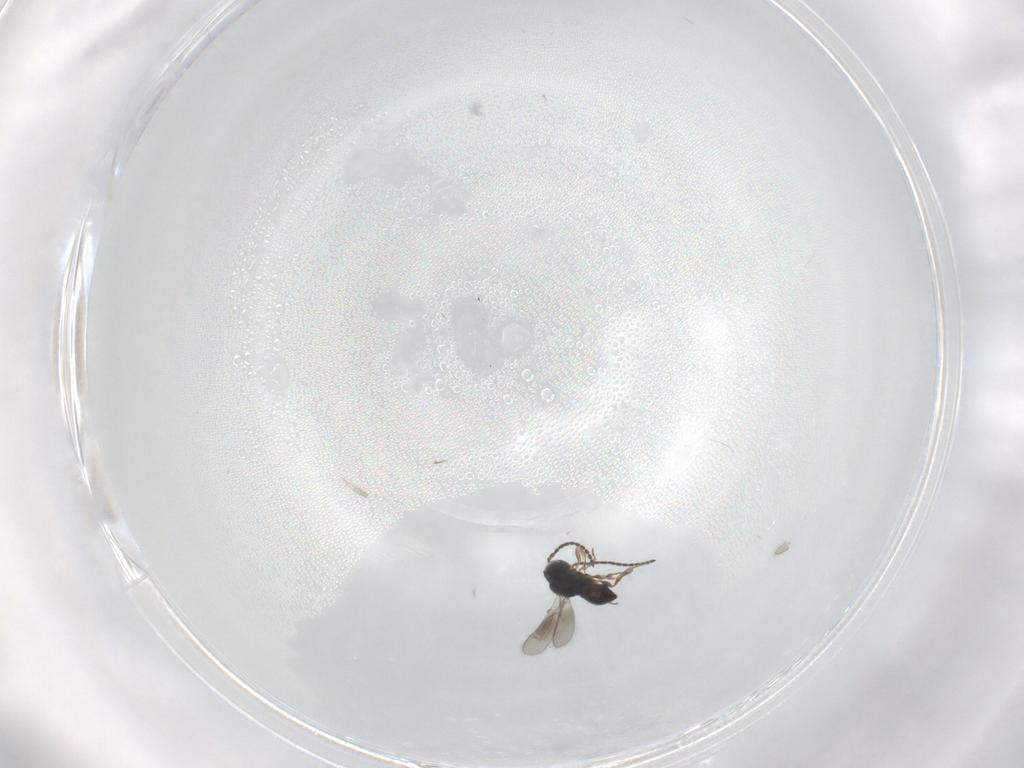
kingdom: Animalia
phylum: Arthropoda
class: Insecta
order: Hymenoptera
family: Scelionidae
